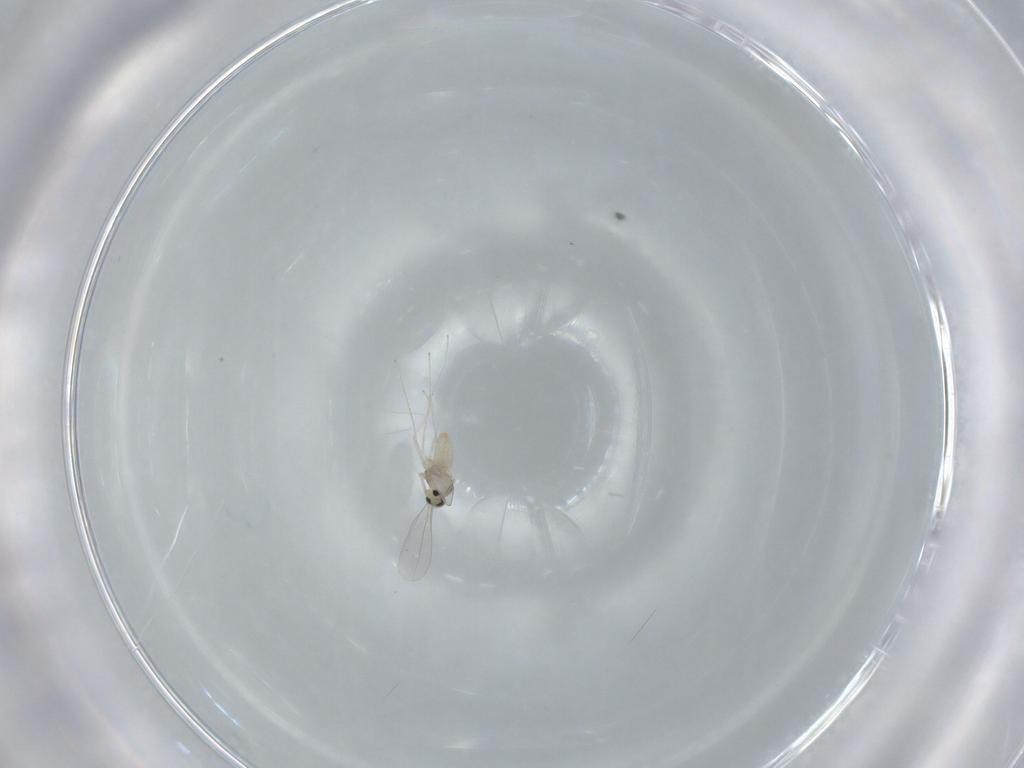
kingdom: Animalia
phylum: Arthropoda
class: Insecta
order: Diptera
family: Cecidomyiidae
